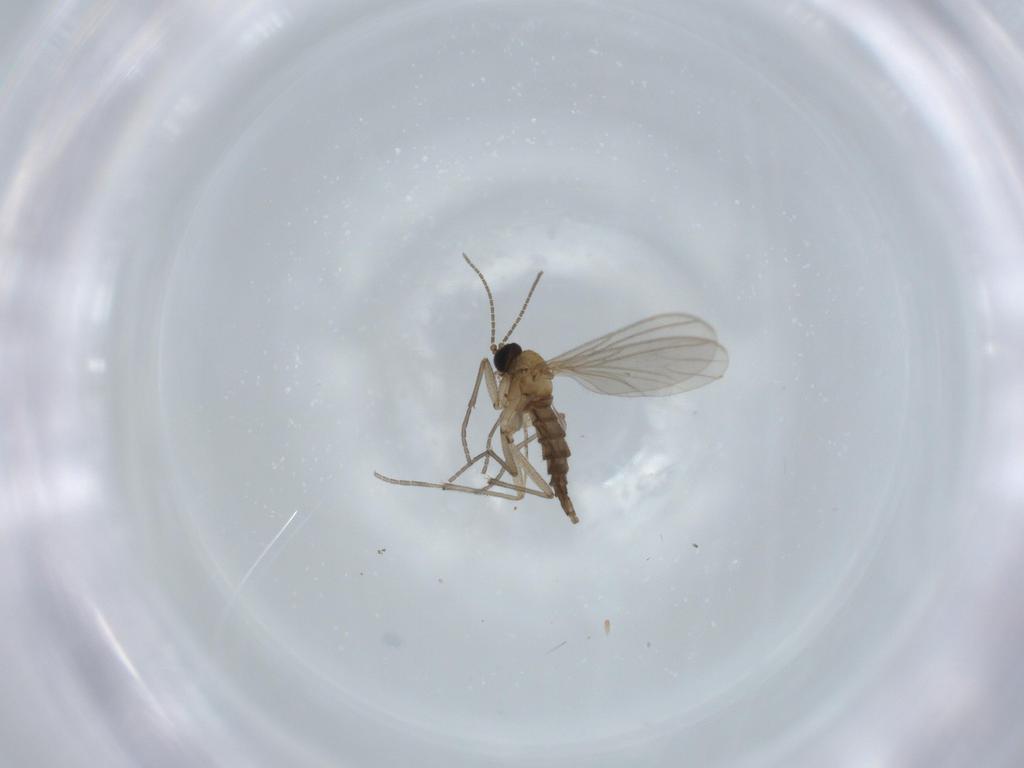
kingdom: Animalia
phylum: Arthropoda
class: Insecta
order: Diptera
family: Sciaridae
